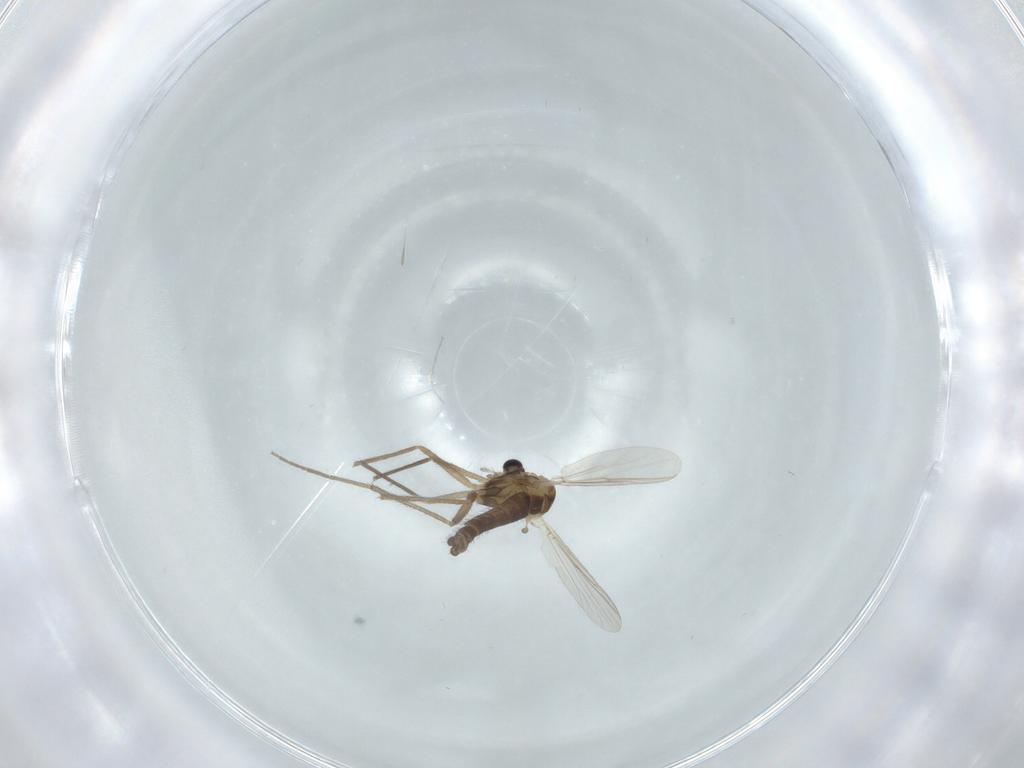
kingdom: Animalia
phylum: Arthropoda
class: Insecta
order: Diptera
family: Chironomidae
